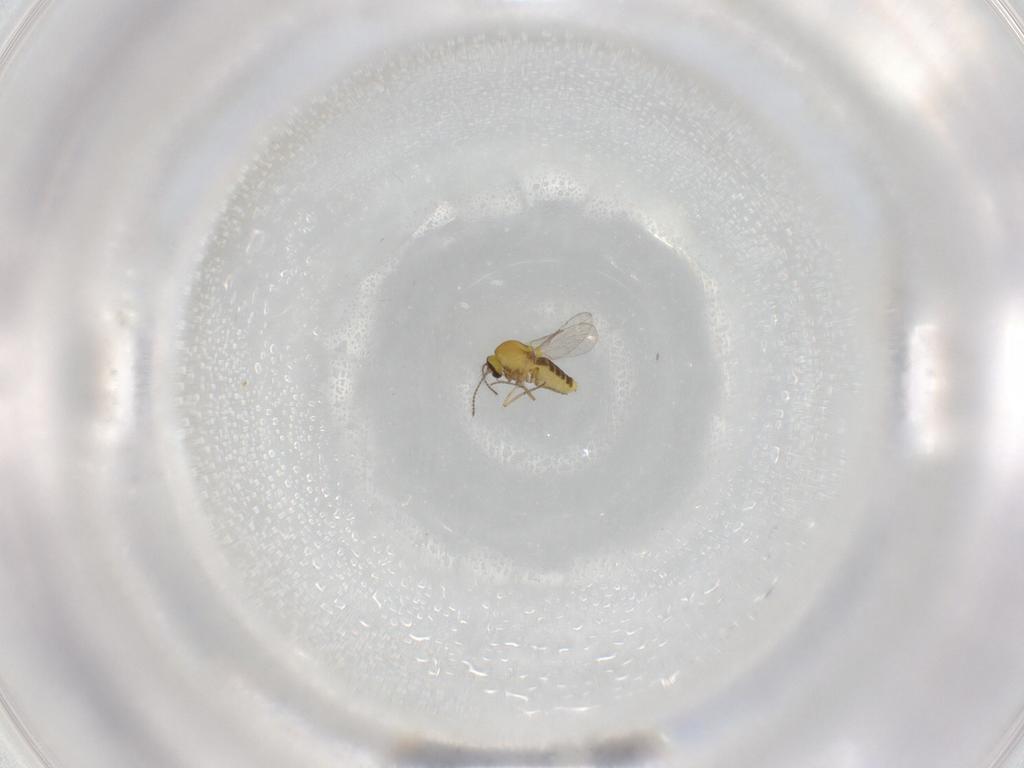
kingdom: Animalia
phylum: Arthropoda
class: Insecta
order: Diptera
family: Ceratopogonidae
